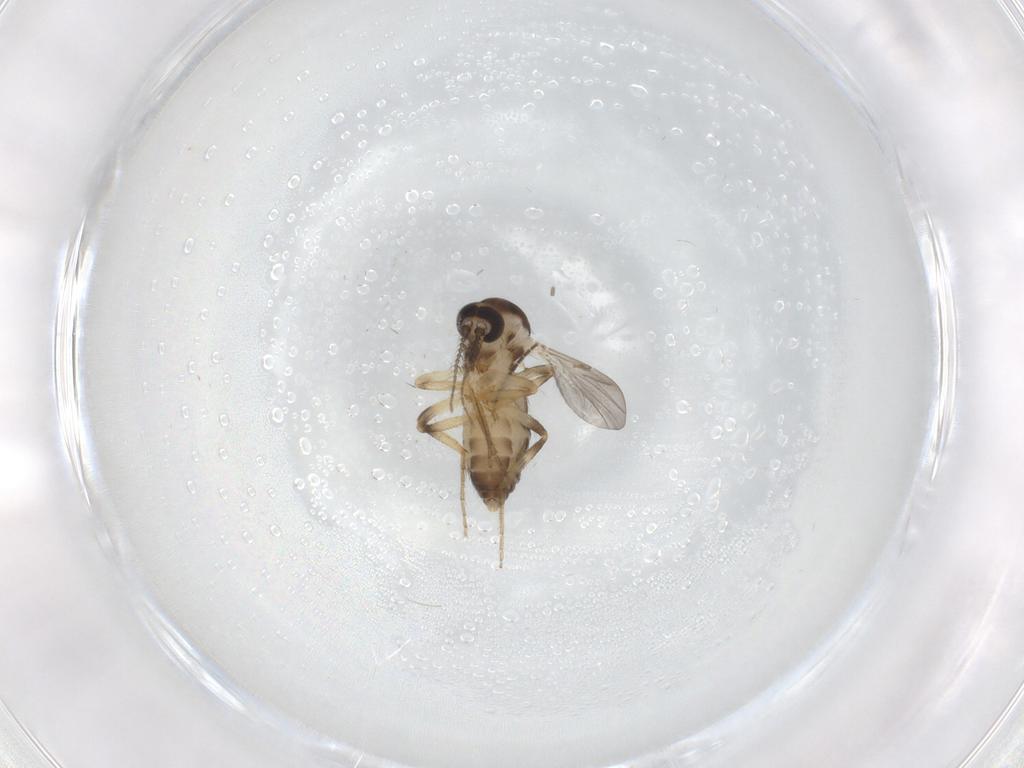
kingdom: Animalia
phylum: Arthropoda
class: Insecta
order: Diptera
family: Ceratopogonidae
